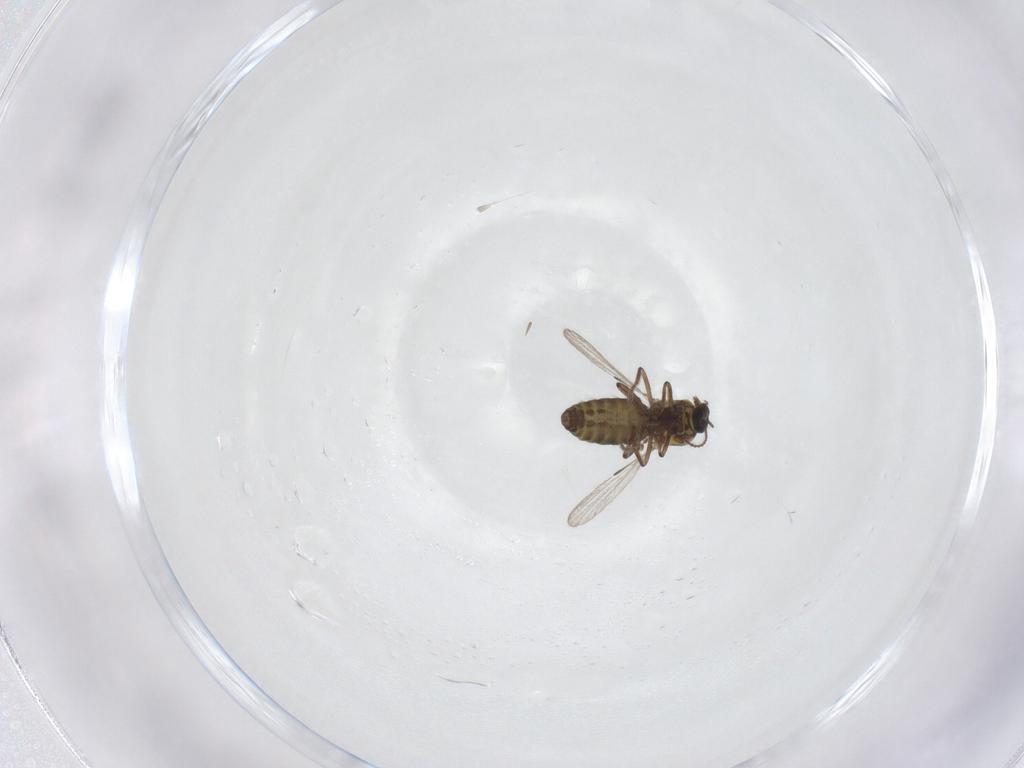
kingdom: Animalia
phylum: Arthropoda
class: Insecta
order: Diptera
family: Ceratopogonidae
